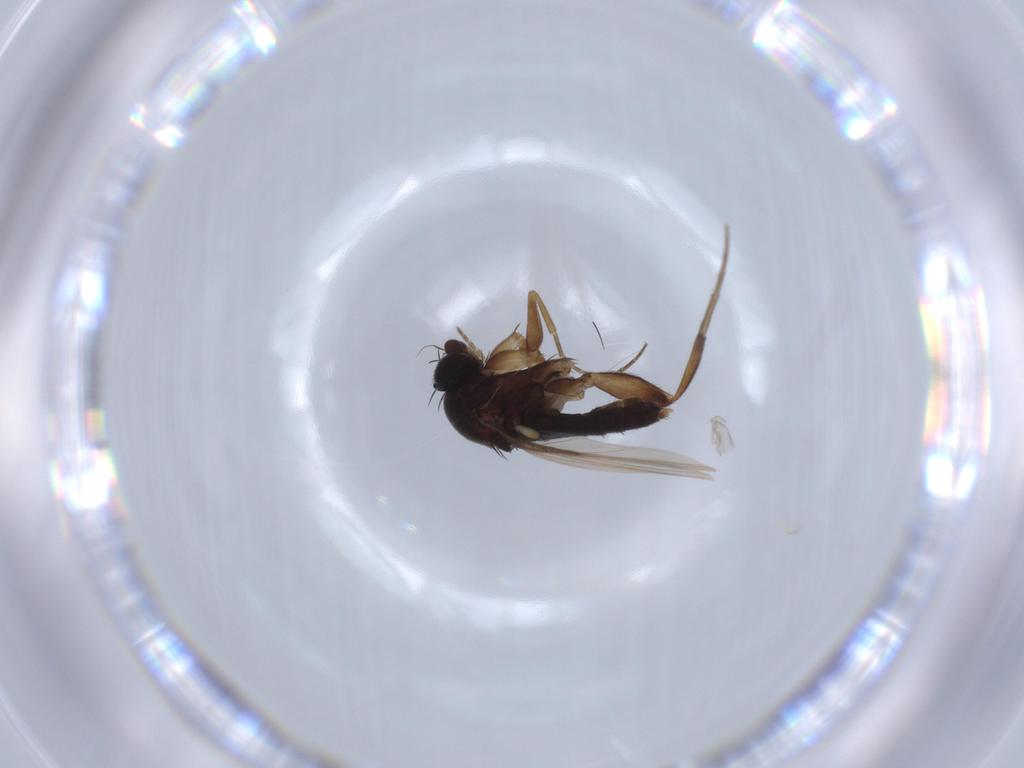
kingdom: Animalia
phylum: Arthropoda
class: Insecta
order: Diptera
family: Phoridae
